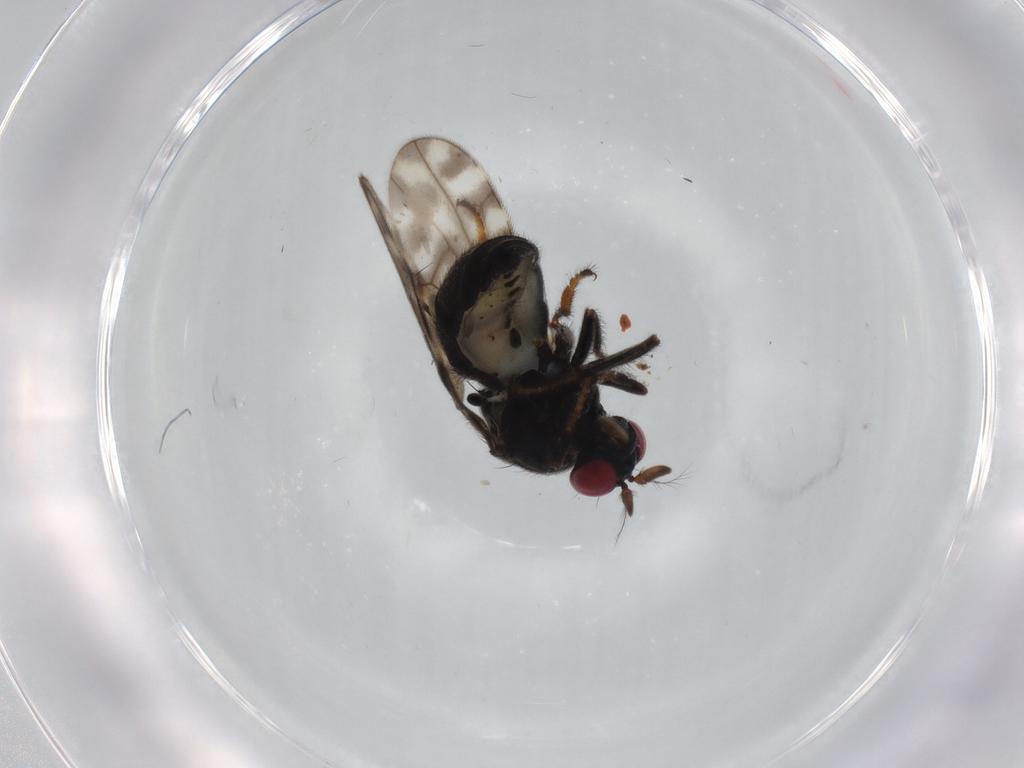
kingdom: Animalia
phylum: Arthropoda
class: Insecta
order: Diptera
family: Ephydridae
